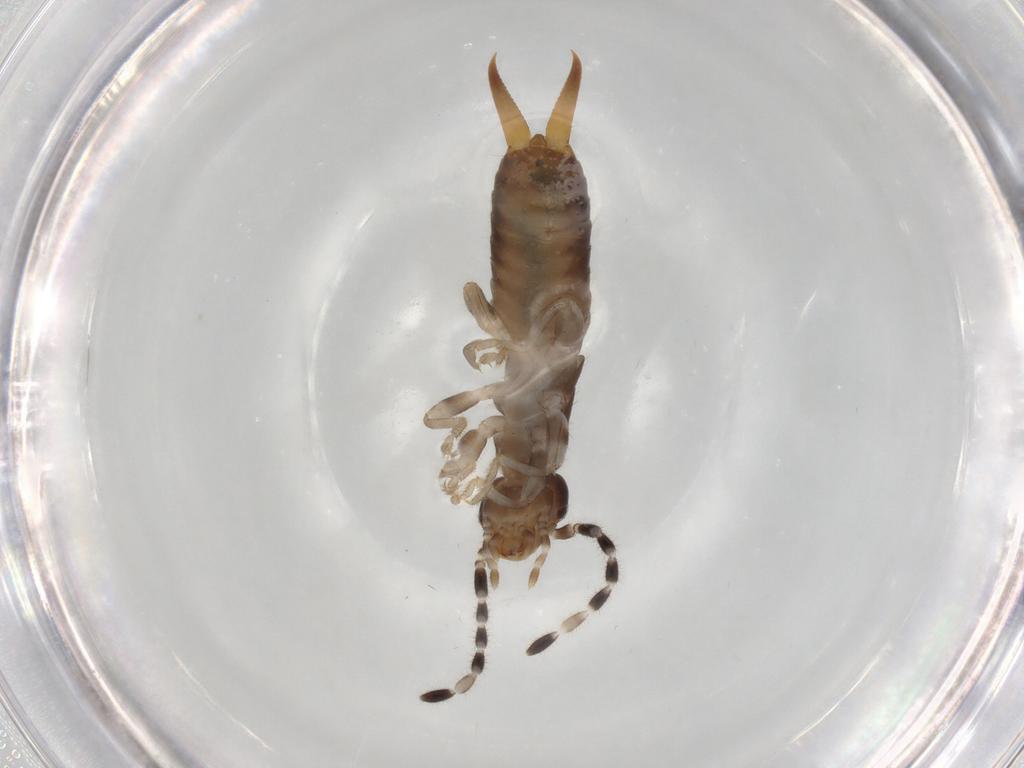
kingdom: Animalia
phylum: Arthropoda
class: Insecta
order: Dermaptera
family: Anisolabididae
